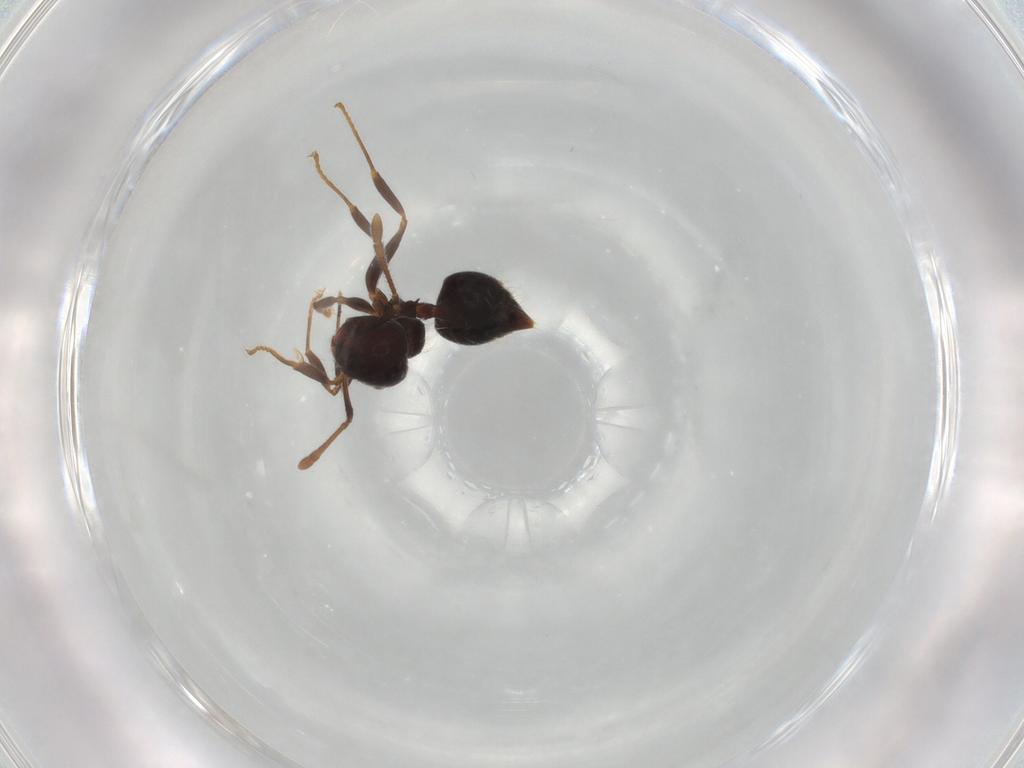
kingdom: Animalia
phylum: Arthropoda
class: Insecta
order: Hymenoptera
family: Formicidae
